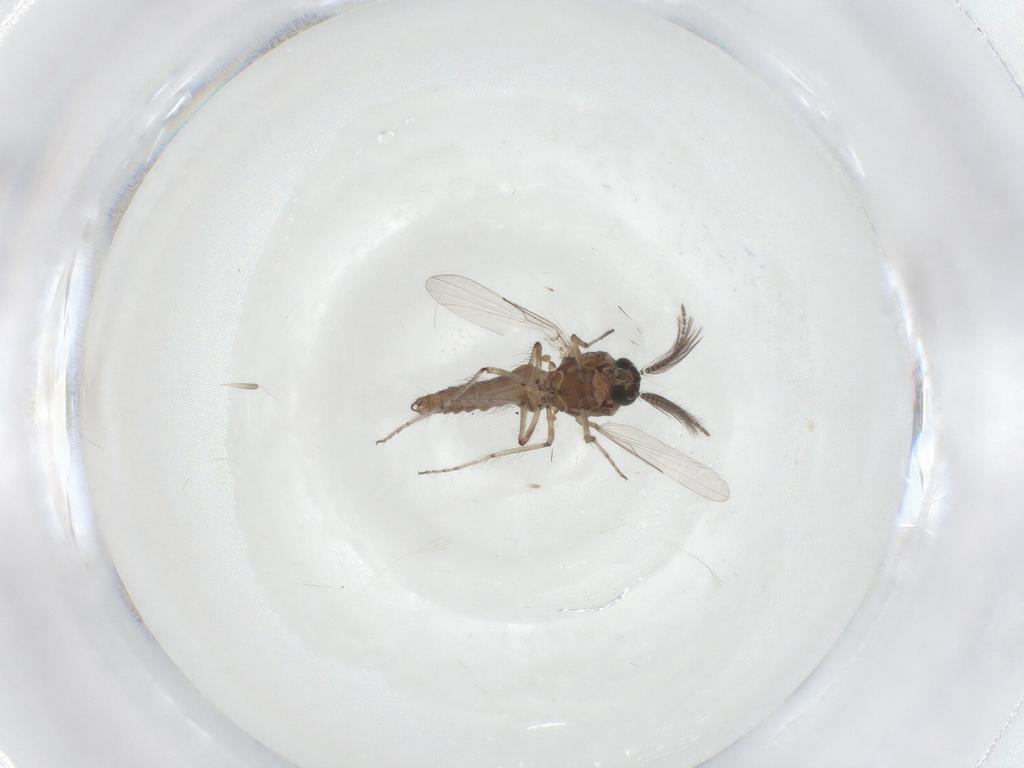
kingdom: Animalia
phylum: Arthropoda
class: Insecta
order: Diptera
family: Ceratopogonidae
